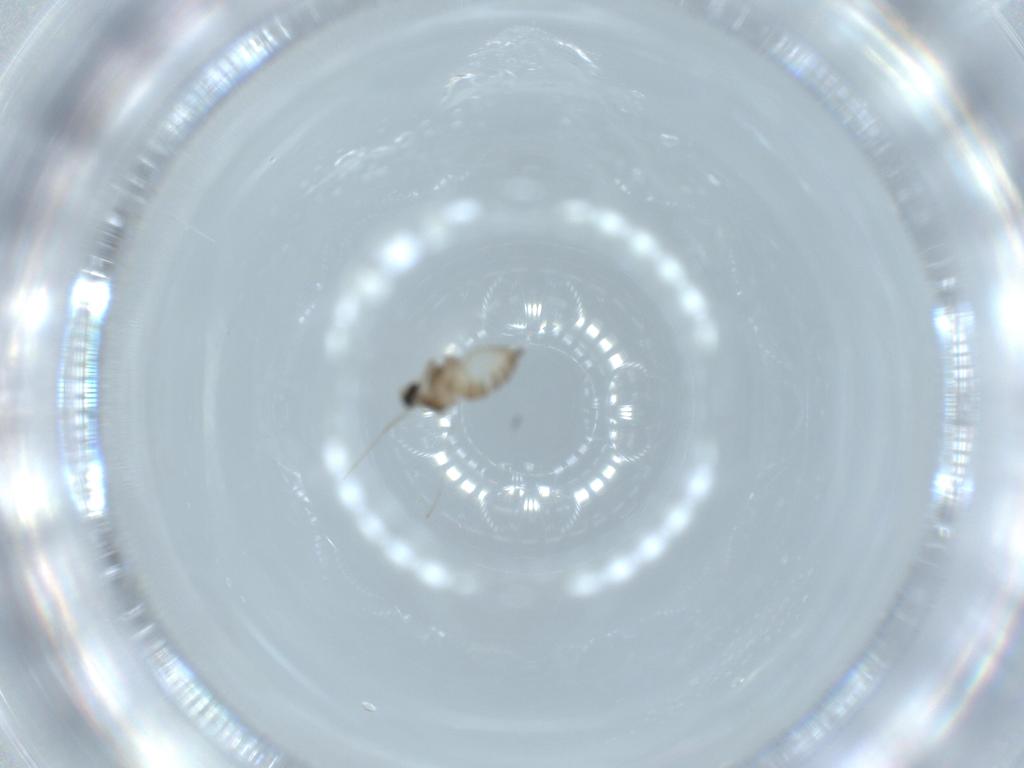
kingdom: Animalia
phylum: Arthropoda
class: Insecta
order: Diptera
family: Cecidomyiidae
